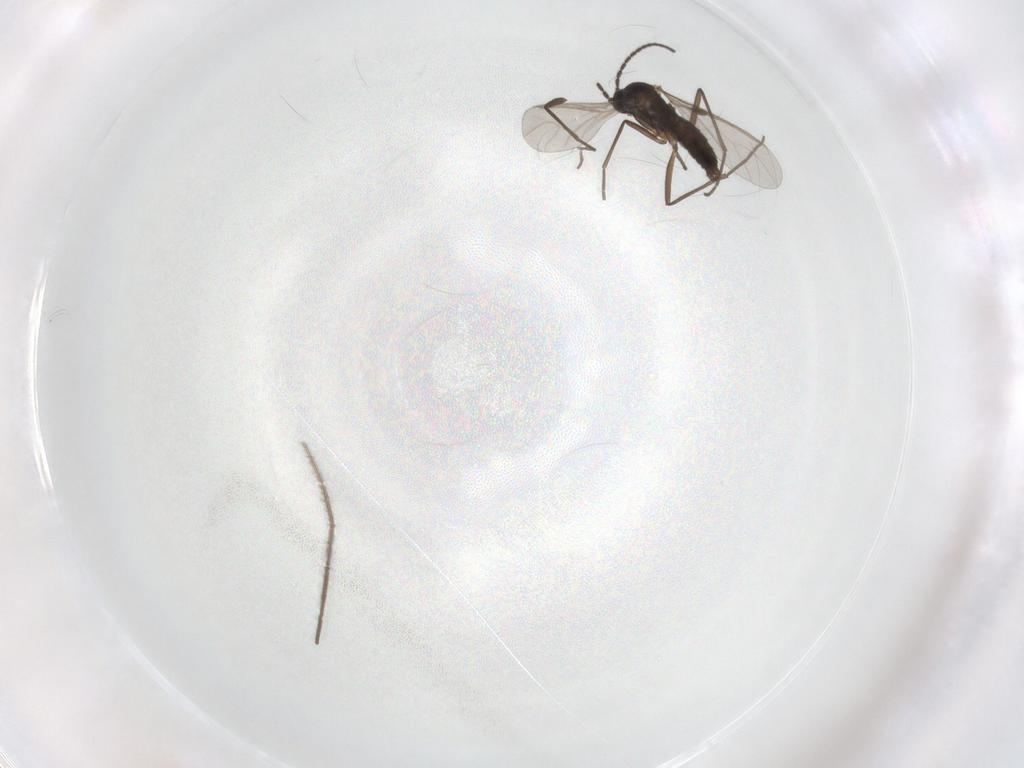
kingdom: Animalia
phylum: Arthropoda
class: Insecta
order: Diptera
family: Sciaridae
